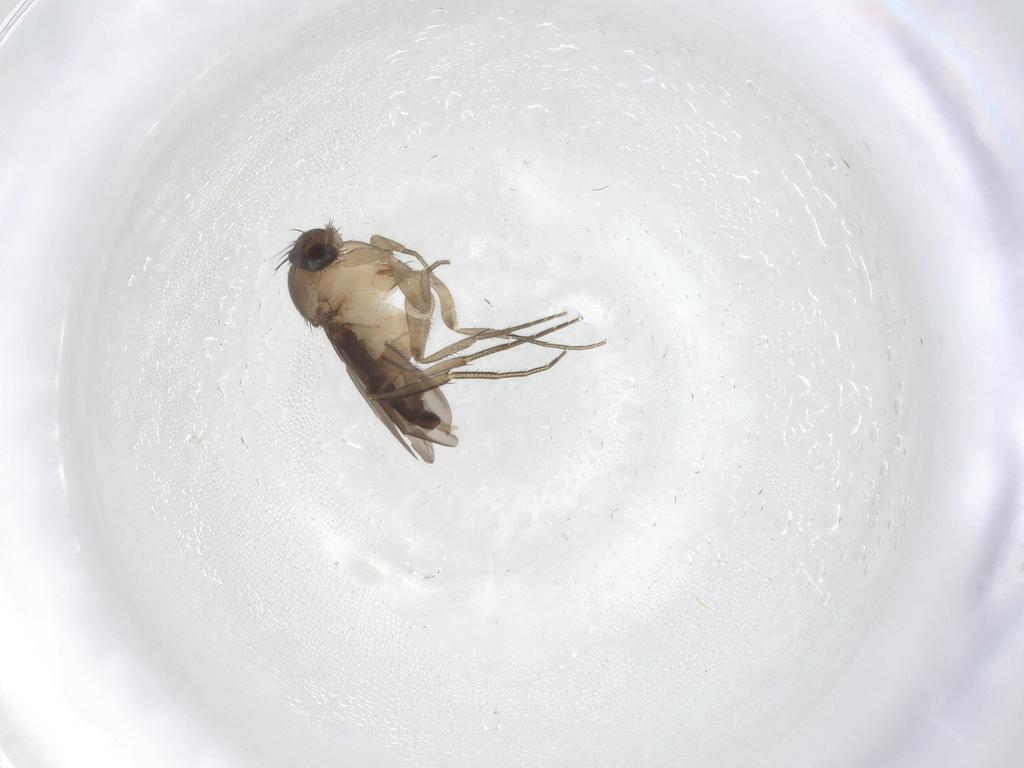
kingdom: Animalia
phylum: Arthropoda
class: Insecta
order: Diptera
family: Phoridae
